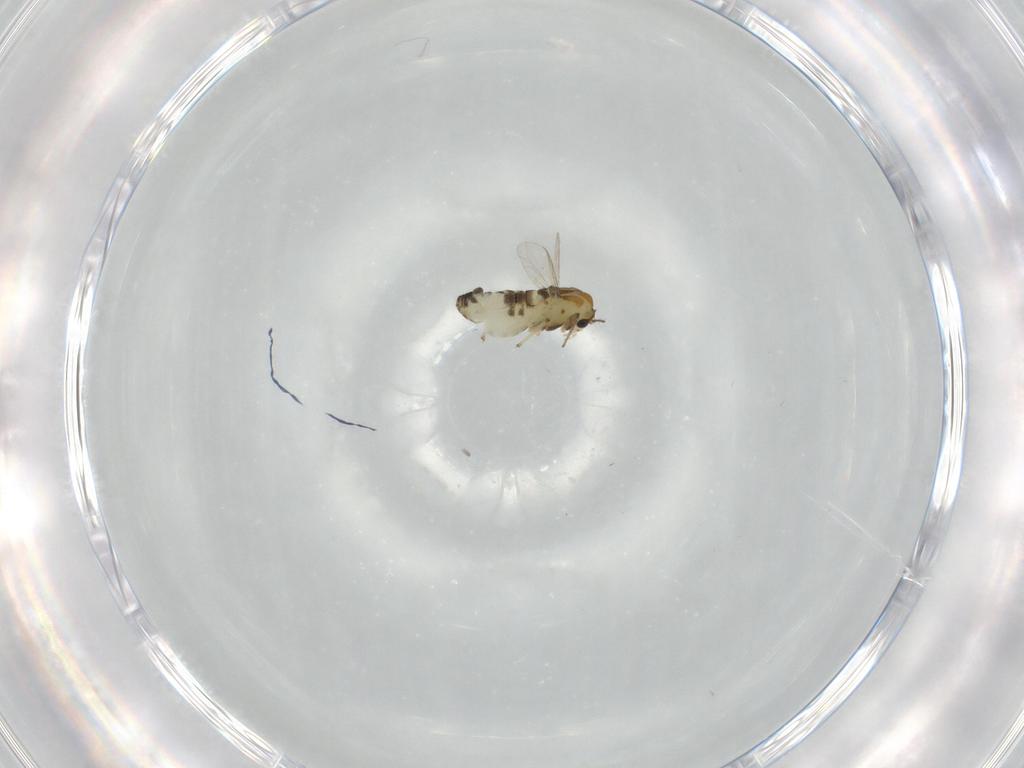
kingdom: Animalia
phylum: Arthropoda
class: Insecta
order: Diptera
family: Chironomidae
